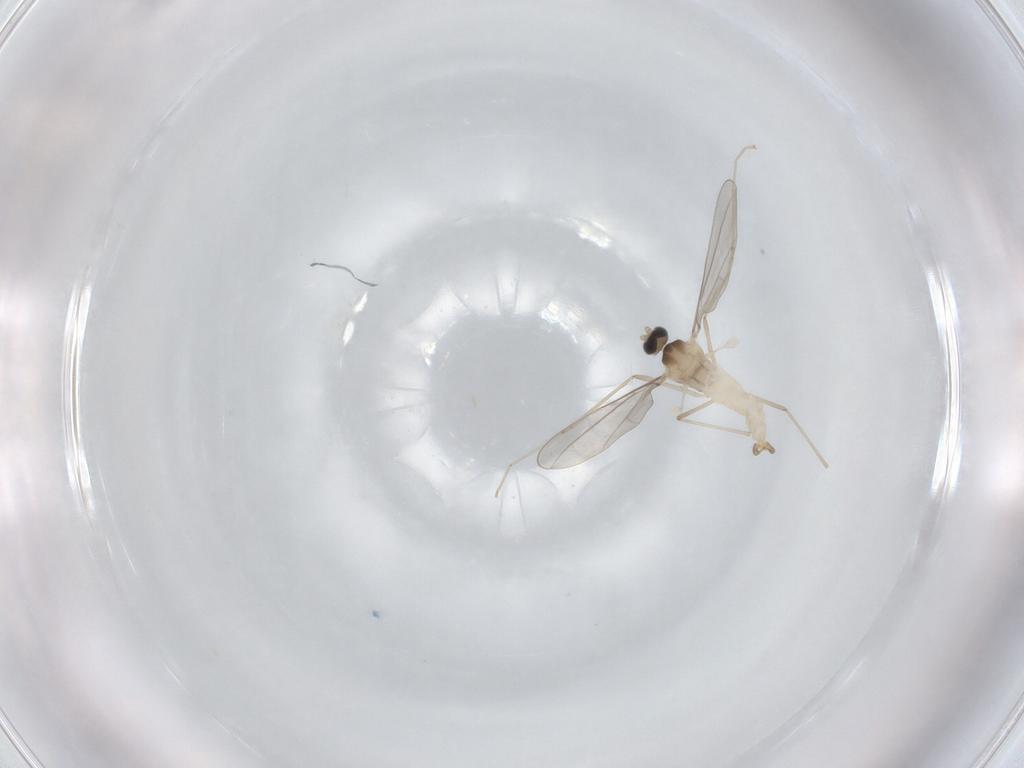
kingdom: Animalia
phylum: Arthropoda
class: Insecta
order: Diptera
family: Cecidomyiidae
